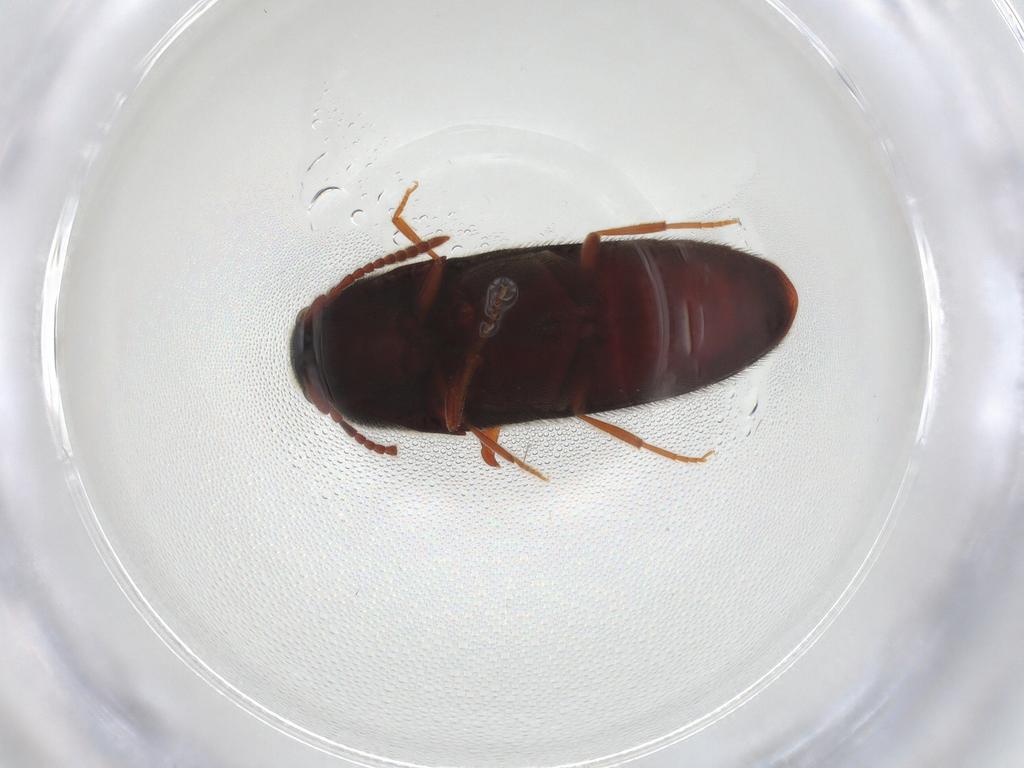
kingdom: Animalia
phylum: Arthropoda
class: Insecta
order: Coleoptera
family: Eucnemidae
